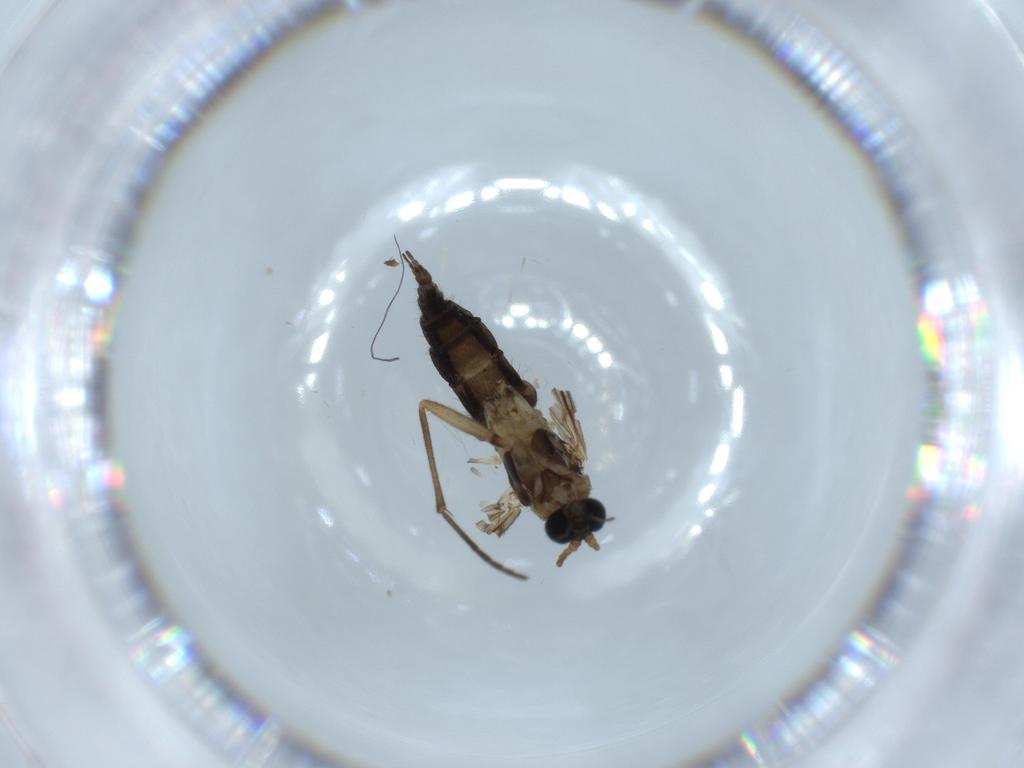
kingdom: Animalia
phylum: Arthropoda
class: Insecta
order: Diptera
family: Sciaridae
